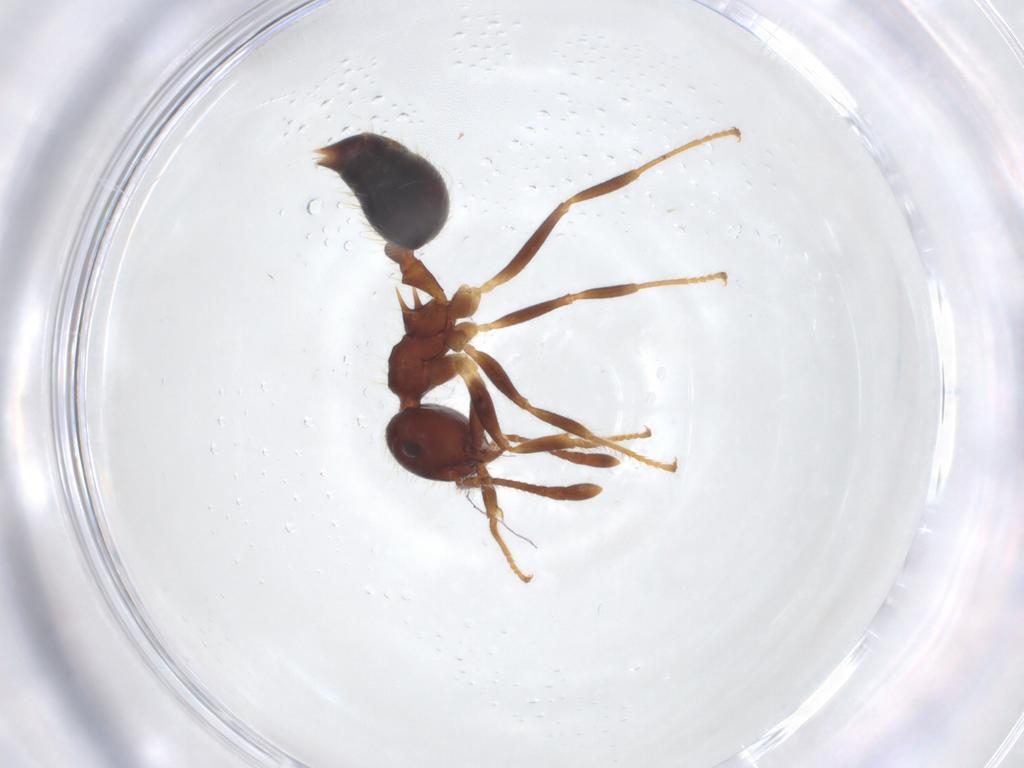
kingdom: Animalia
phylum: Arthropoda
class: Insecta
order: Hymenoptera
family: Formicidae
